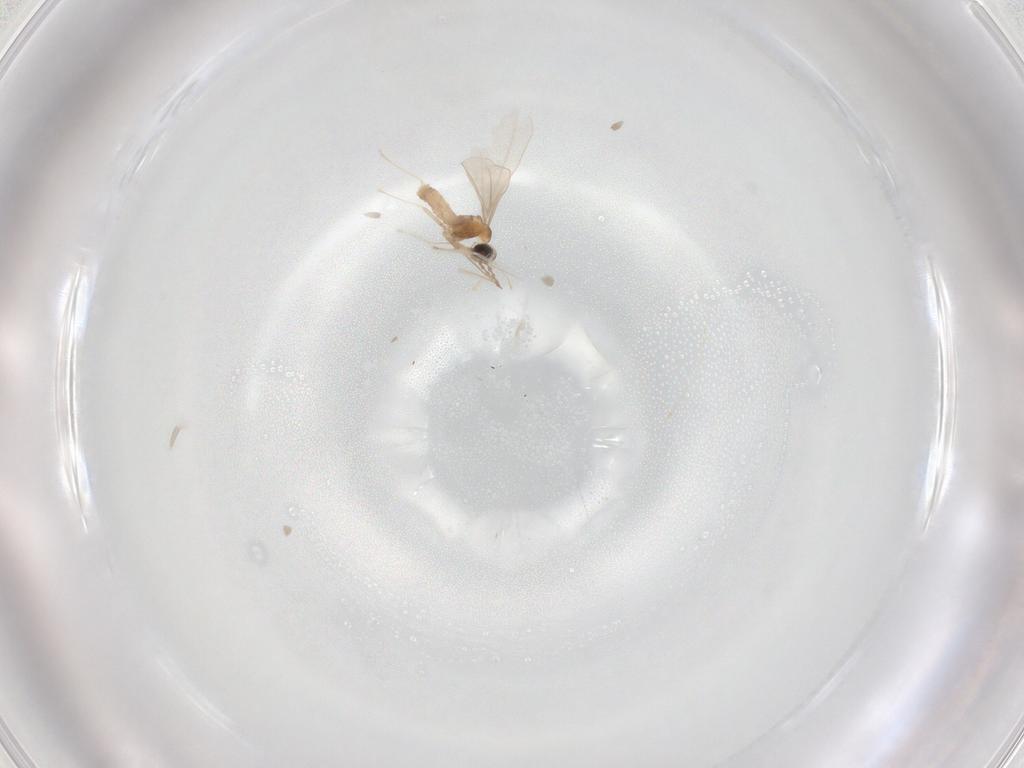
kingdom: Animalia
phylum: Arthropoda
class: Insecta
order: Diptera
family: Cecidomyiidae
